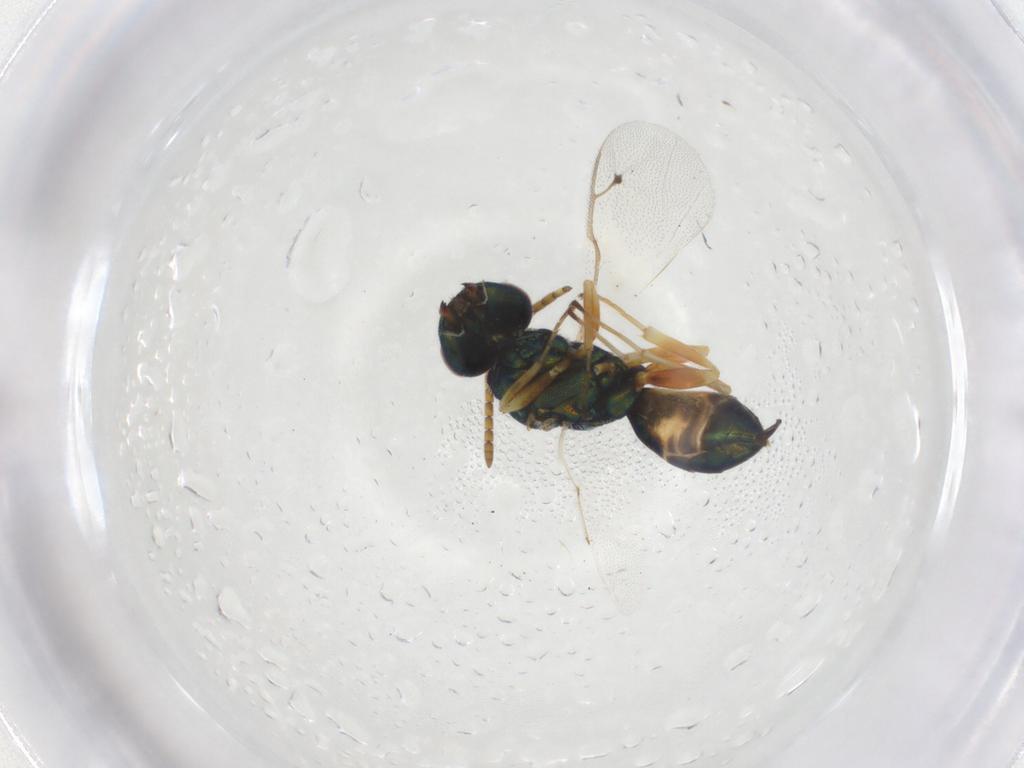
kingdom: Animalia
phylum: Arthropoda
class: Insecta
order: Hymenoptera
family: Pteromalidae
